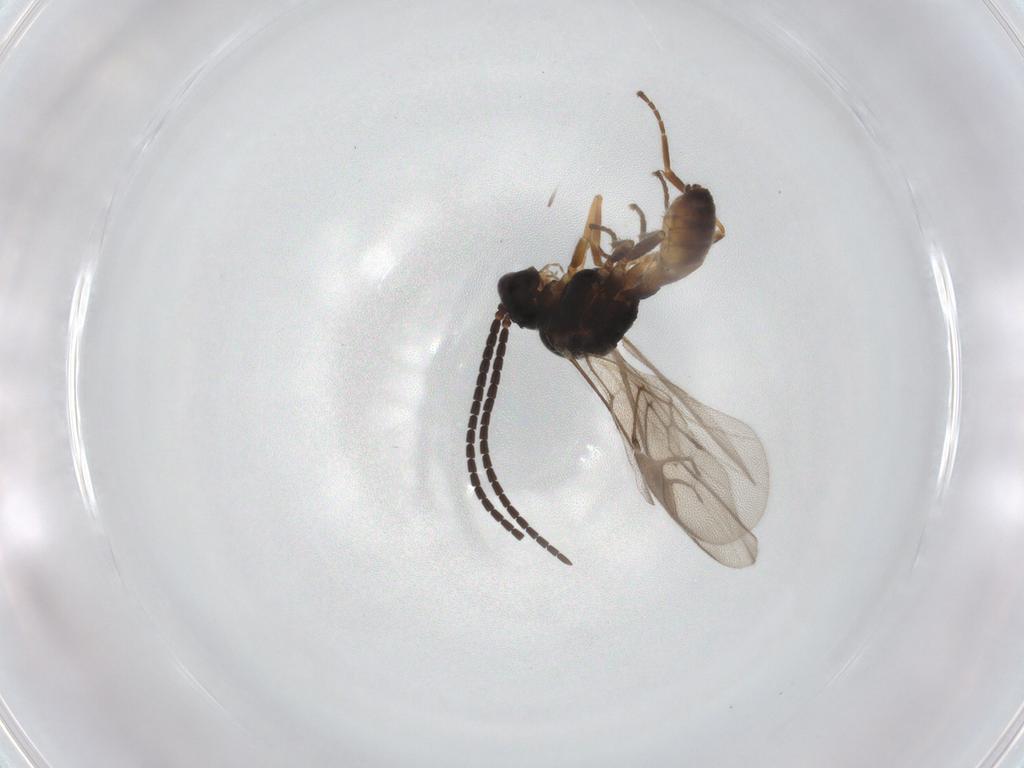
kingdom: Animalia
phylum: Arthropoda
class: Insecta
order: Hymenoptera
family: Braconidae
